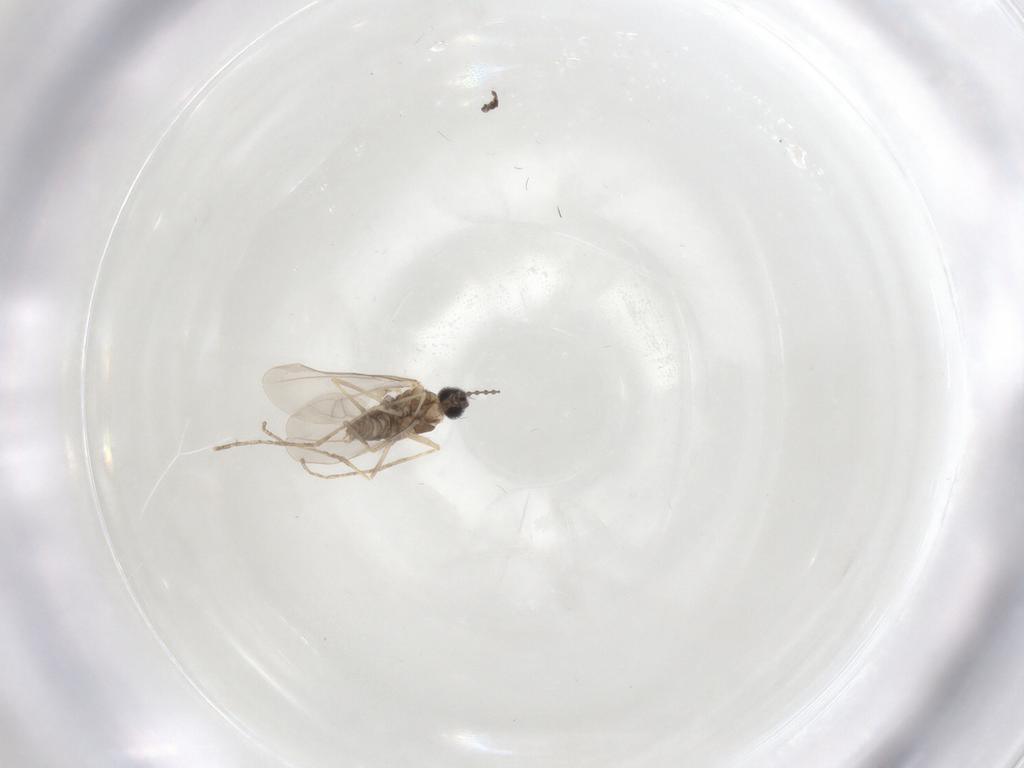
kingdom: Animalia
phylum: Arthropoda
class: Insecta
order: Diptera
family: Cecidomyiidae
